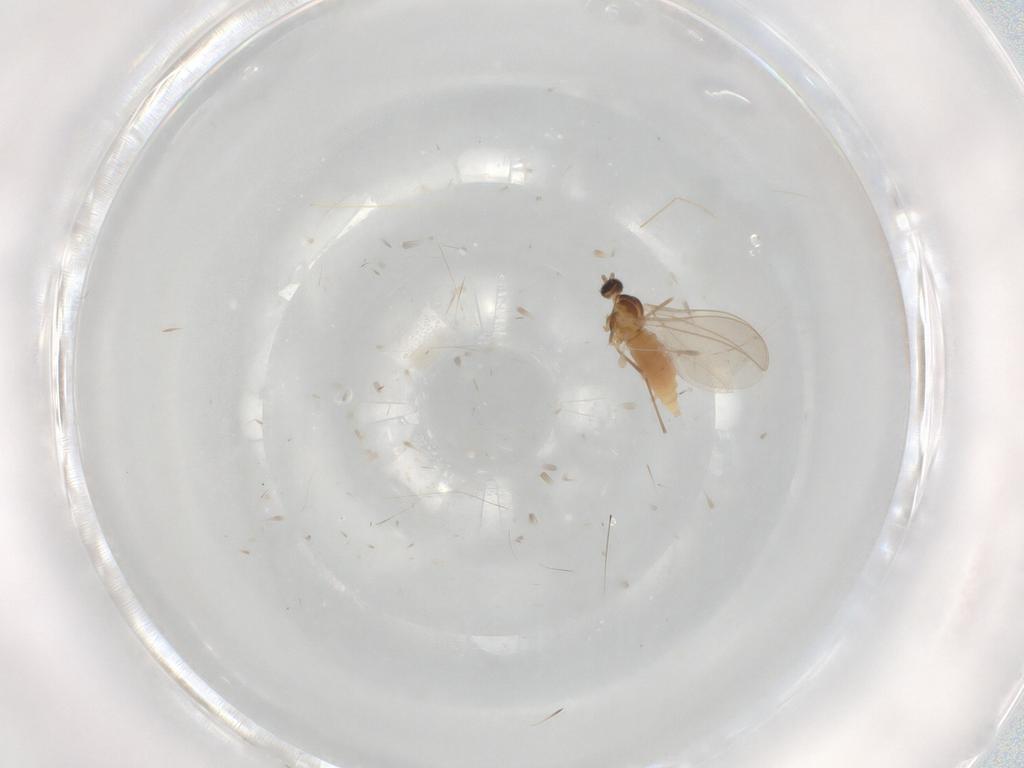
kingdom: Animalia
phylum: Arthropoda
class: Insecta
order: Diptera
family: Cecidomyiidae
